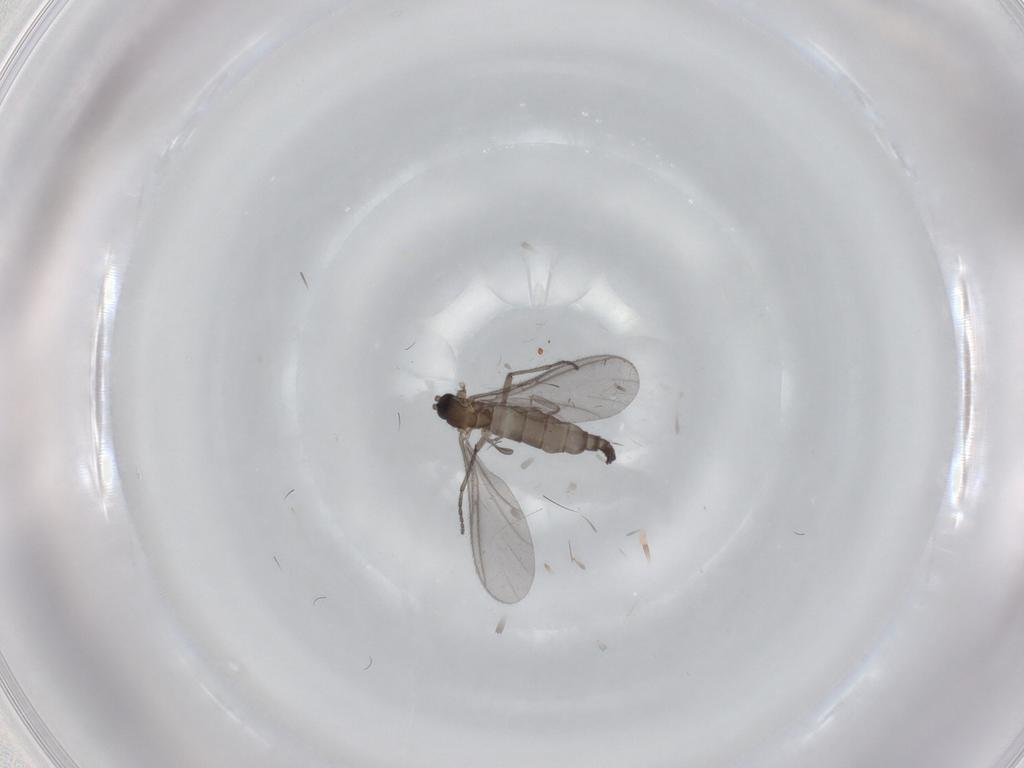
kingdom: Animalia
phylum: Arthropoda
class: Insecta
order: Diptera
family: Sciaridae
